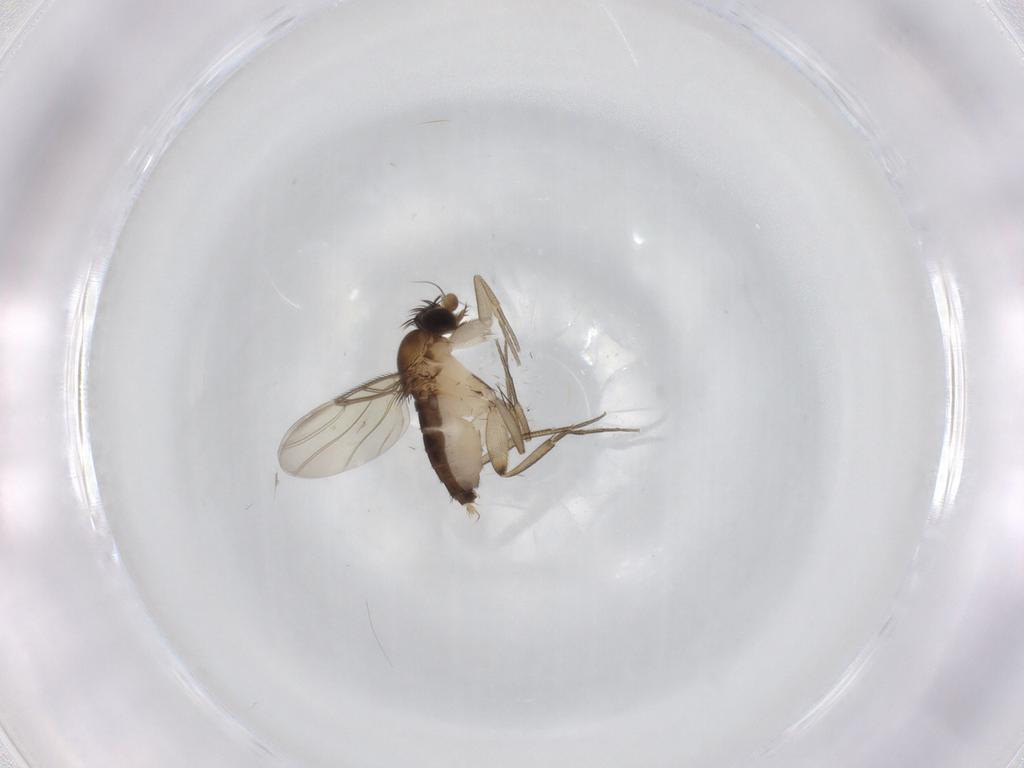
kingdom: Animalia
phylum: Arthropoda
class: Insecta
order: Diptera
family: Phoridae
